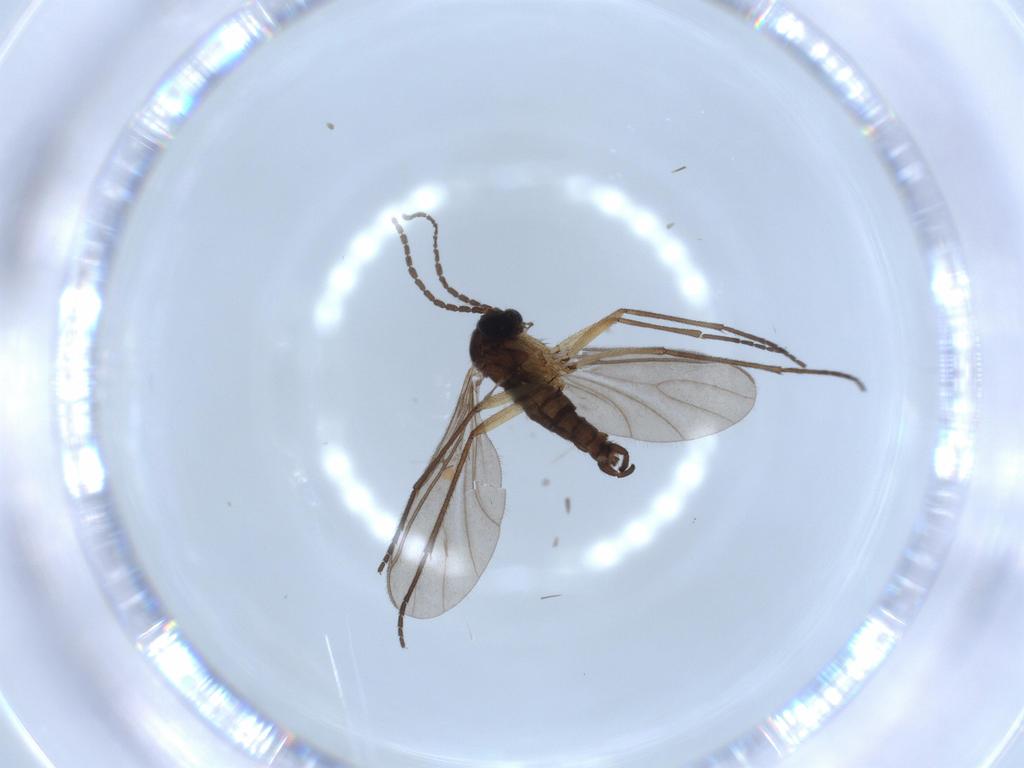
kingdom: Animalia
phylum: Arthropoda
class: Insecta
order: Diptera
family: Sciaridae
